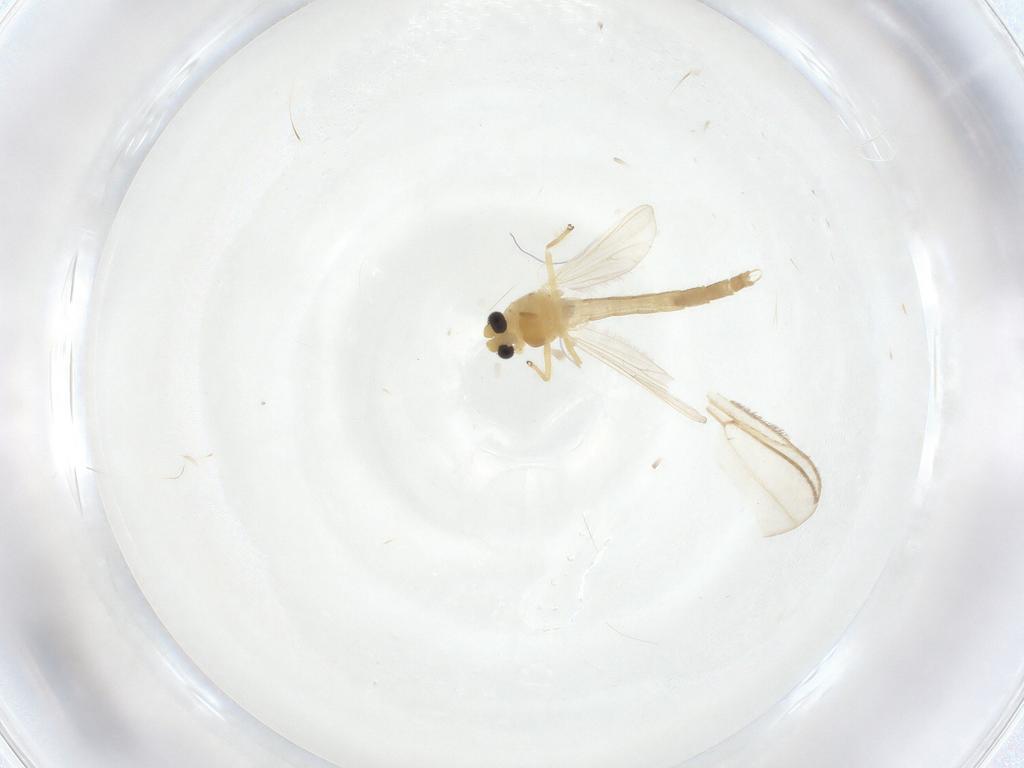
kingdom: Animalia
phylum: Arthropoda
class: Insecta
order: Diptera
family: Chironomidae
